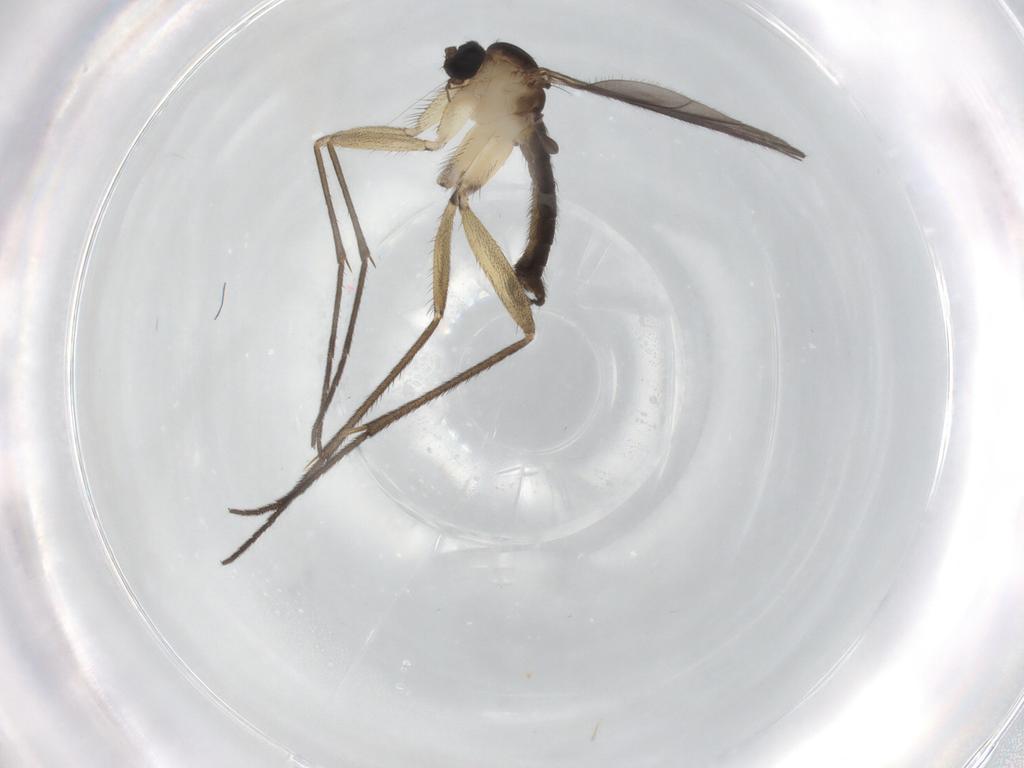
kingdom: Animalia
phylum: Arthropoda
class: Insecta
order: Diptera
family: Sciaridae
